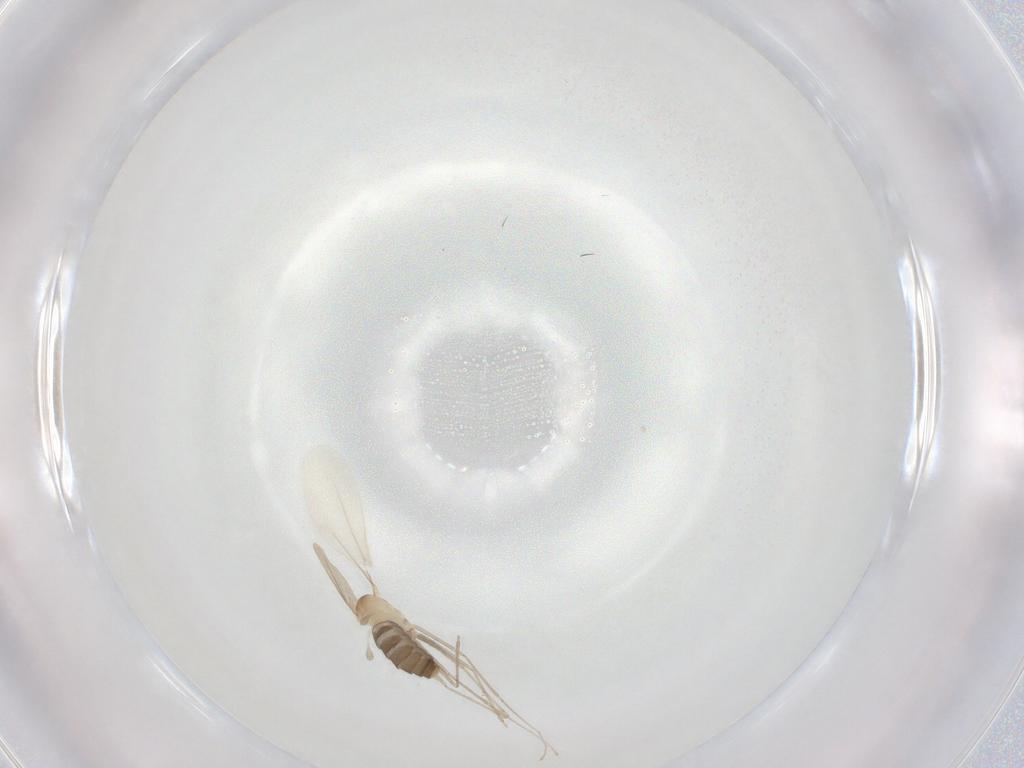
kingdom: Animalia
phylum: Arthropoda
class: Insecta
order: Diptera
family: Cecidomyiidae
